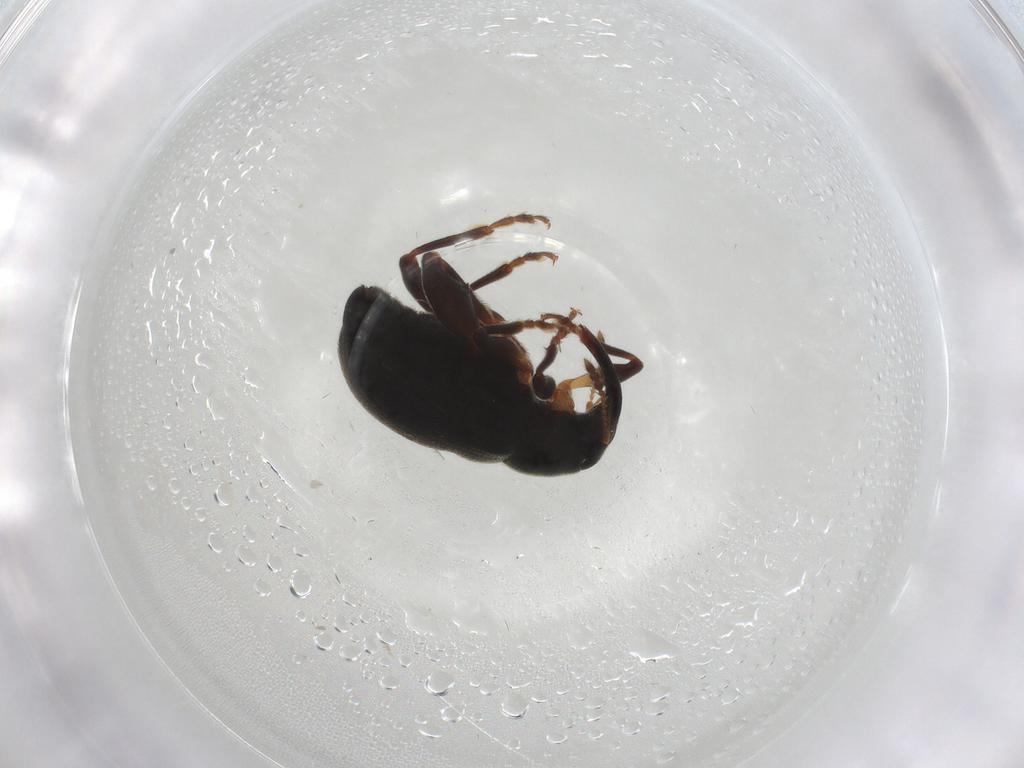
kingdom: Animalia
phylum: Arthropoda
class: Insecta
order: Coleoptera
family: Curculionidae
